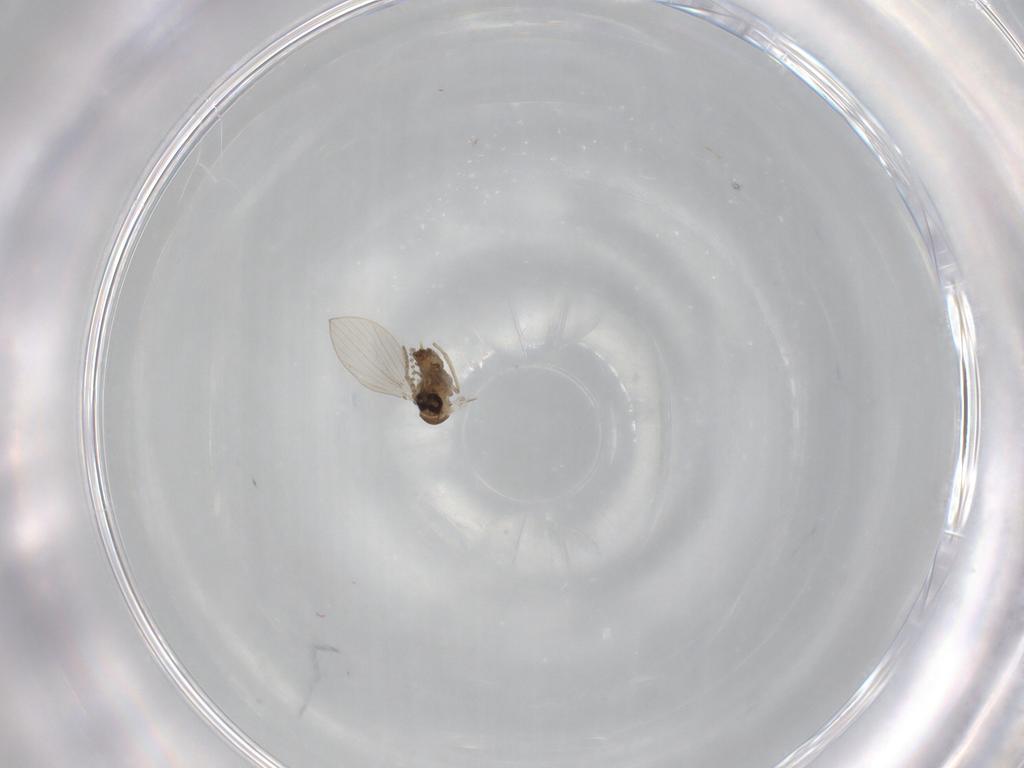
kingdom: Animalia
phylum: Arthropoda
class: Insecta
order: Diptera
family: Psychodidae
